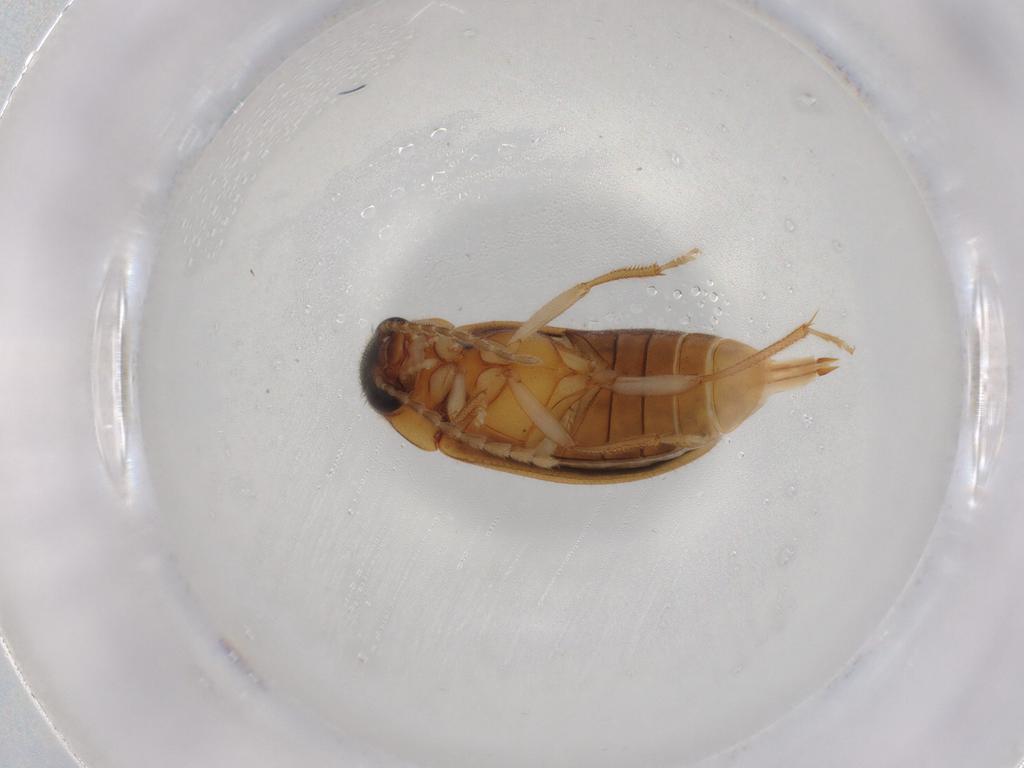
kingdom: Animalia
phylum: Arthropoda
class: Insecta
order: Coleoptera
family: Ptilodactylidae
